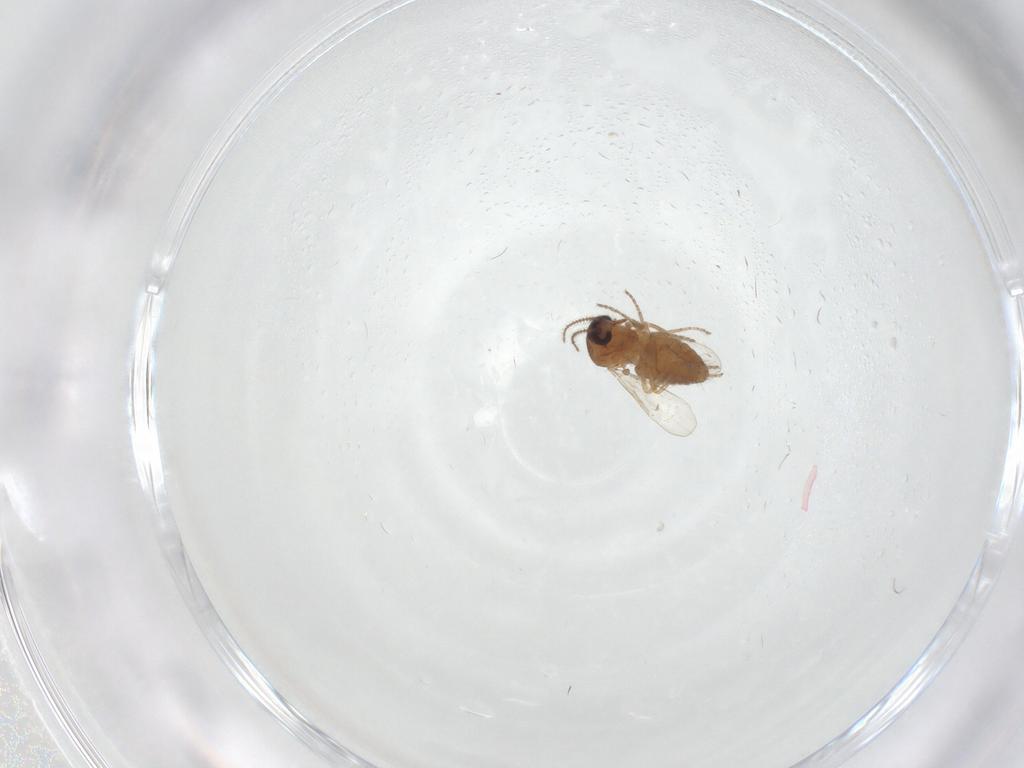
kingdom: Animalia
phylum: Arthropoda
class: Insecta
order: Diptera
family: Ceratopogonidae
